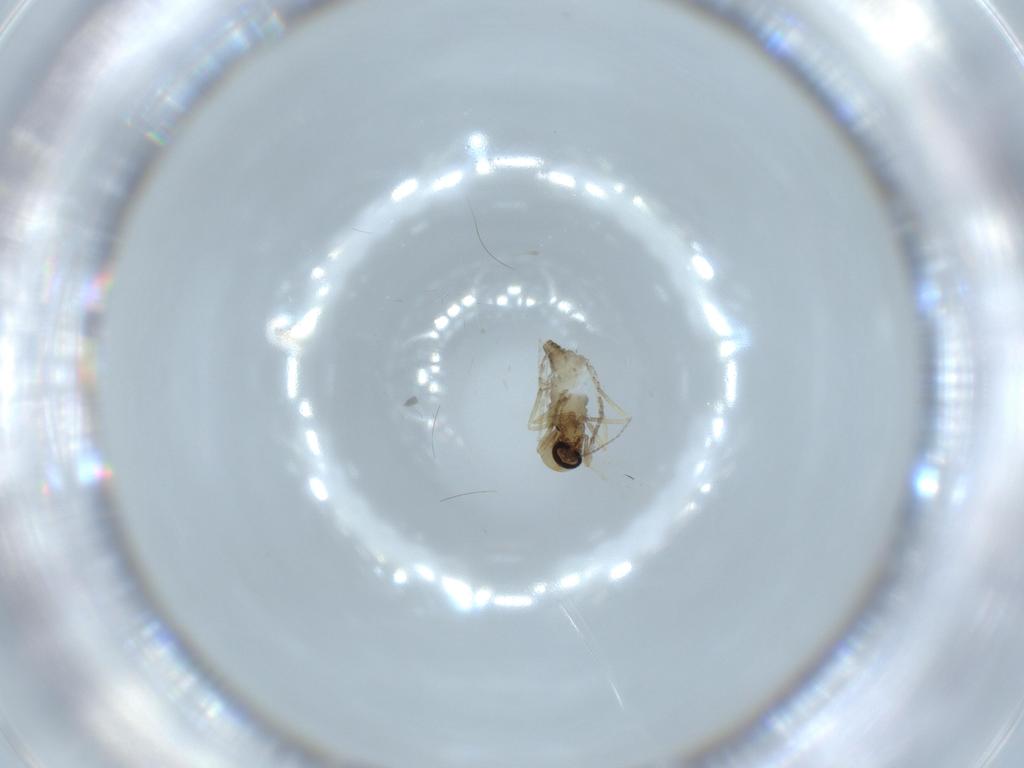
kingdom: Animalia
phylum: Arthropoda
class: Insecta
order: Diptera
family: Ceratopogonidae
